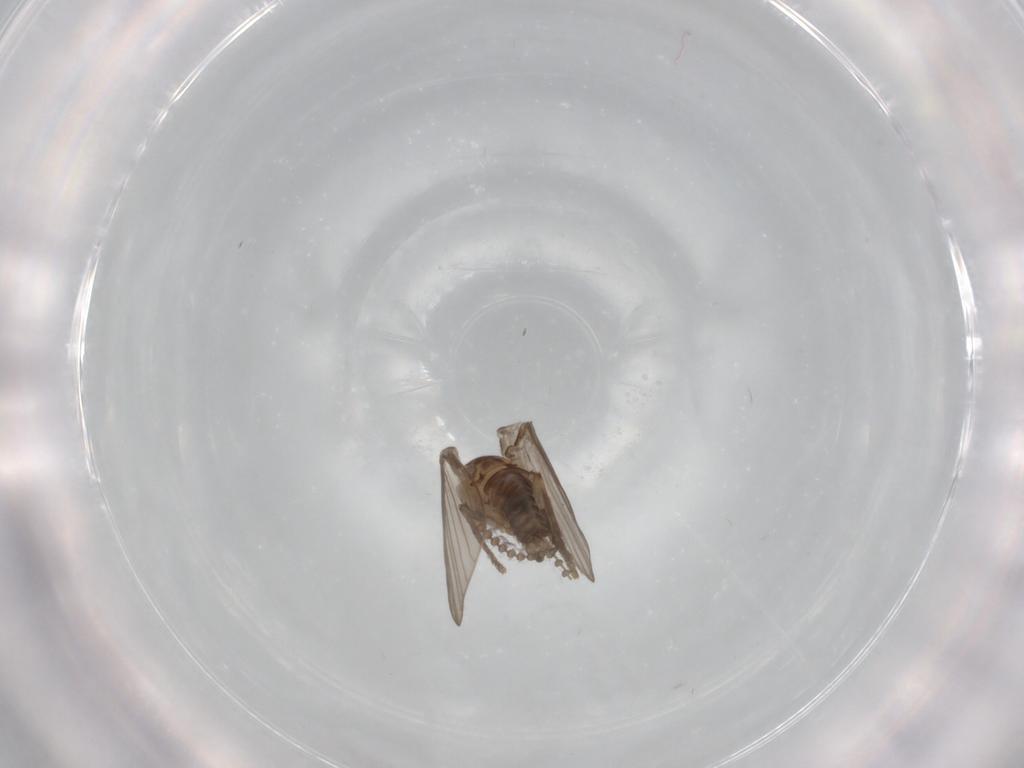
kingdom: Animalia
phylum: Arthropoda
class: Insecta
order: Diptera
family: Psychodidae
